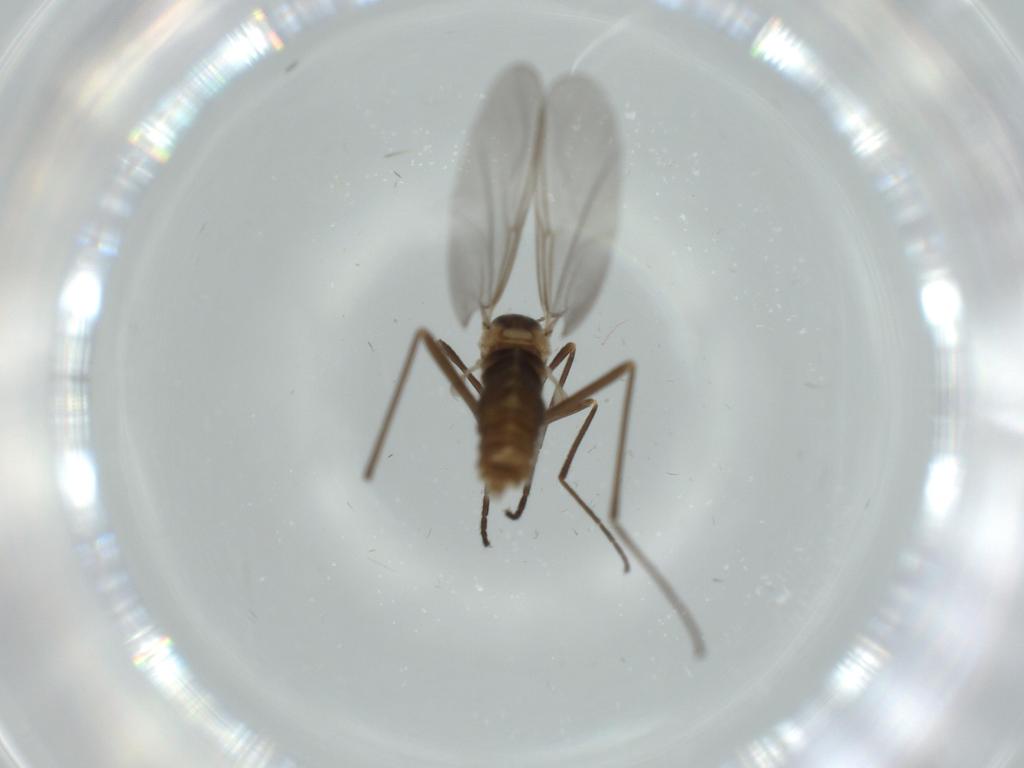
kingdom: Animalia
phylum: Arthropoda
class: Insecta
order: Diptera
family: Cecidomyiidae
